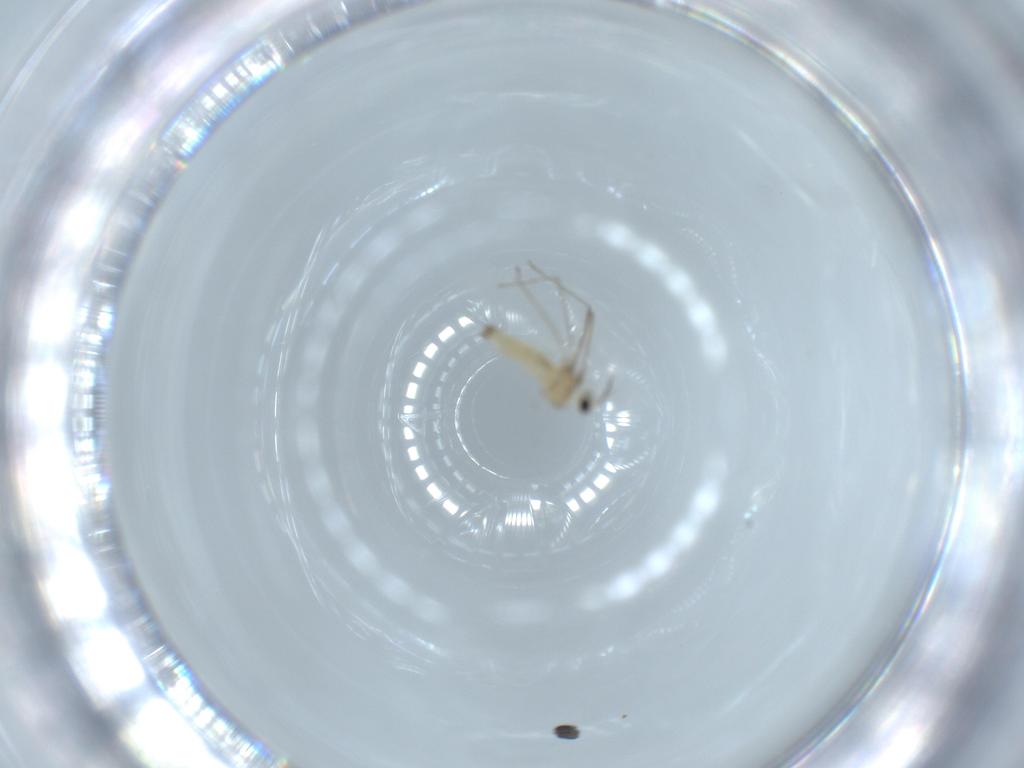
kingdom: Animalia
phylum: Arthropoda
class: Insecta
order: Diptera
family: Cecidomyiidae
